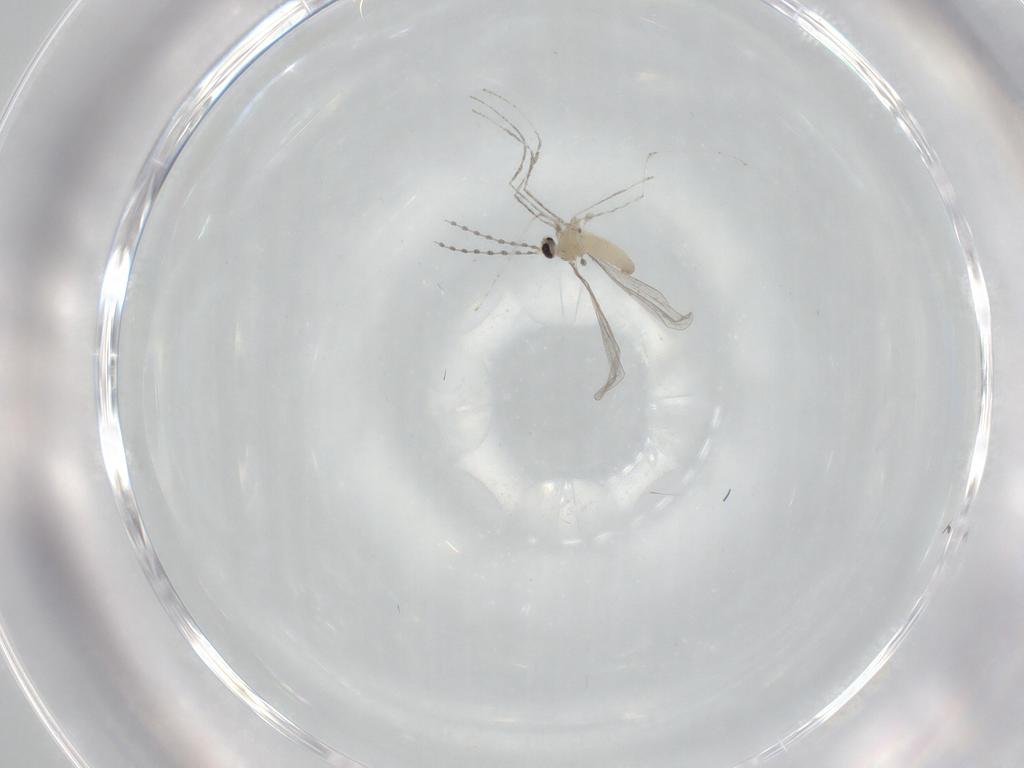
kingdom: Animalia
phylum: Arthropoda
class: Insecta
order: Diptera
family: Cecidomyiidae
